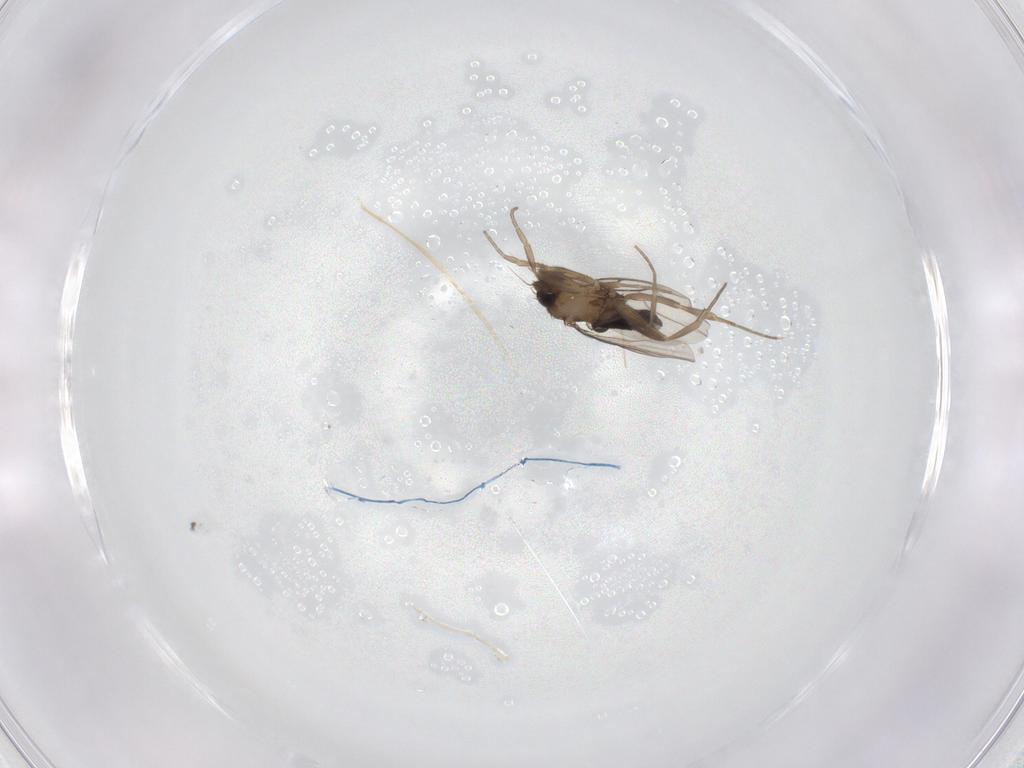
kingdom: Animalia
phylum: Arthropoda
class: Insecta
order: Diptera
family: Phoridae
